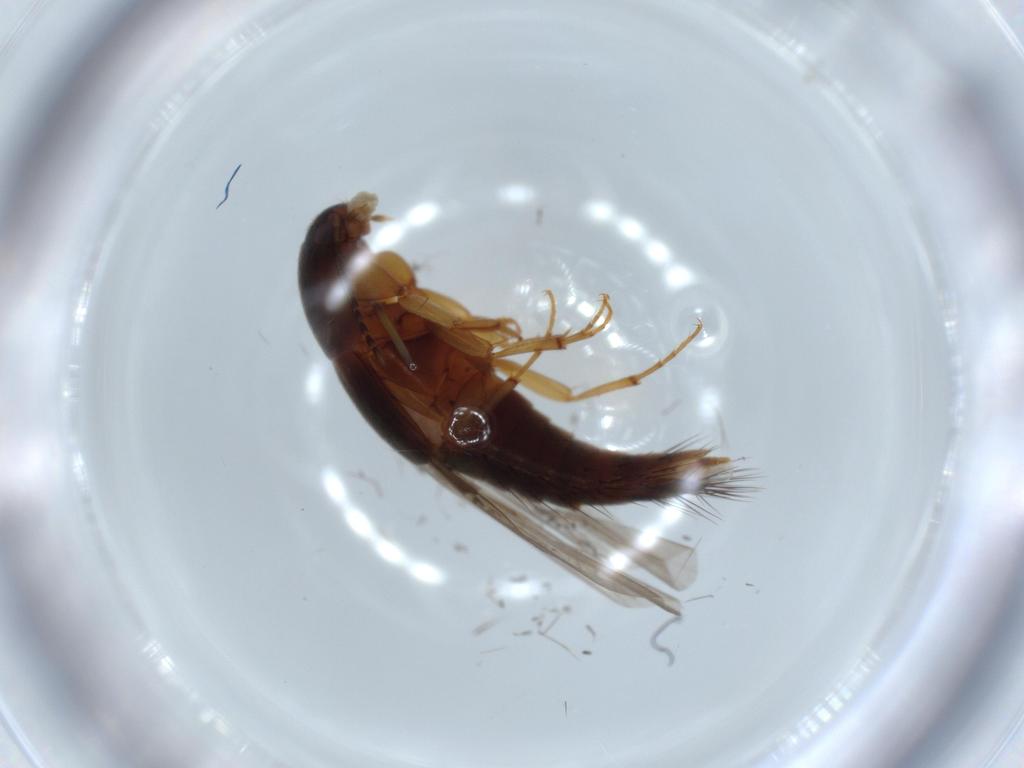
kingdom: Animalia
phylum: Arthropoda
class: Insecta
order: Coleoptera
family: Staphylinidae
